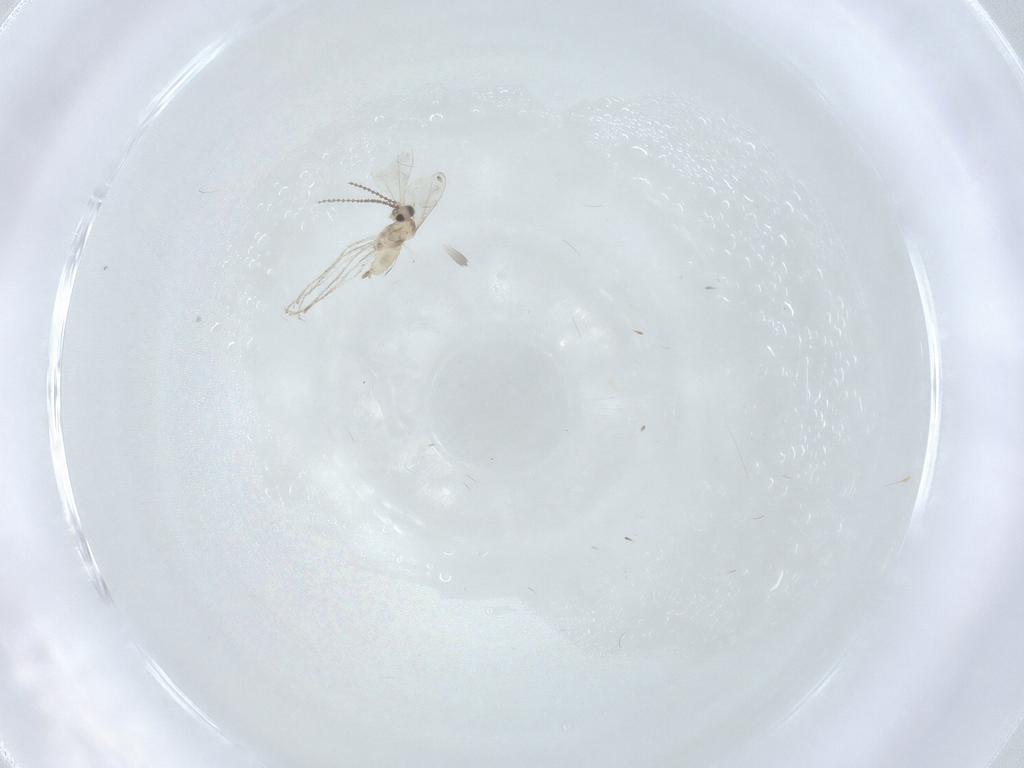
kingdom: Animalia
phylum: Arthropoda
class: Insecta
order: Diptera
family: Cecidomyiidae
